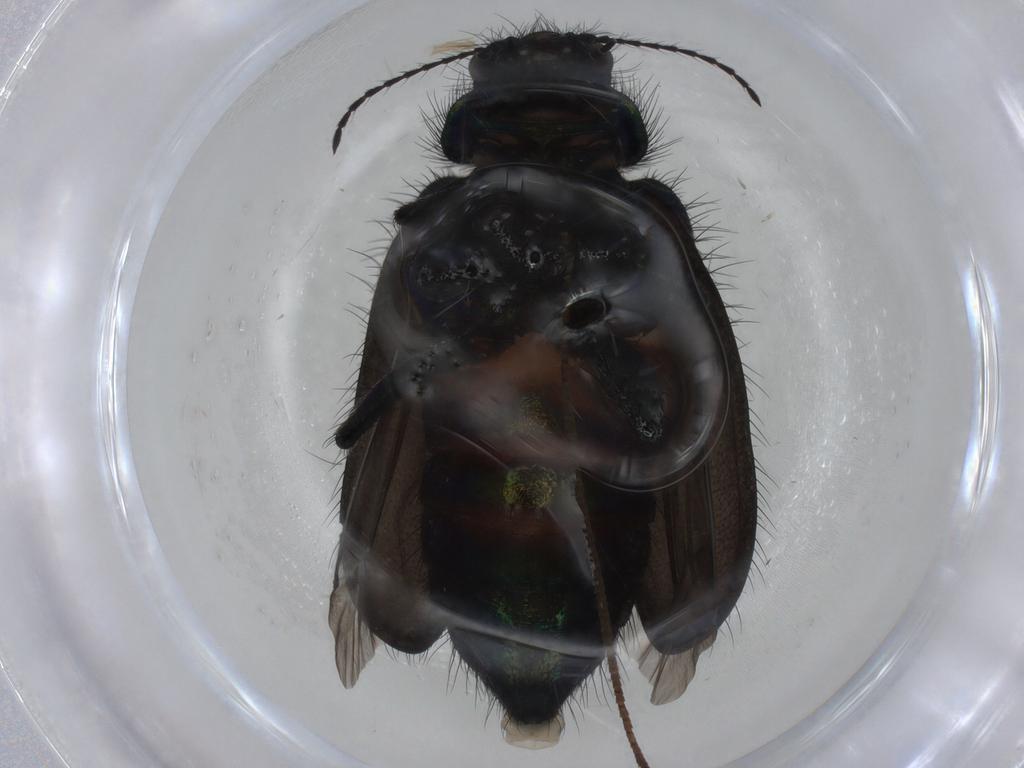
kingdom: Animalia
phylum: Arthropoda
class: Insecta
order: Coleoptera
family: Melyridae
